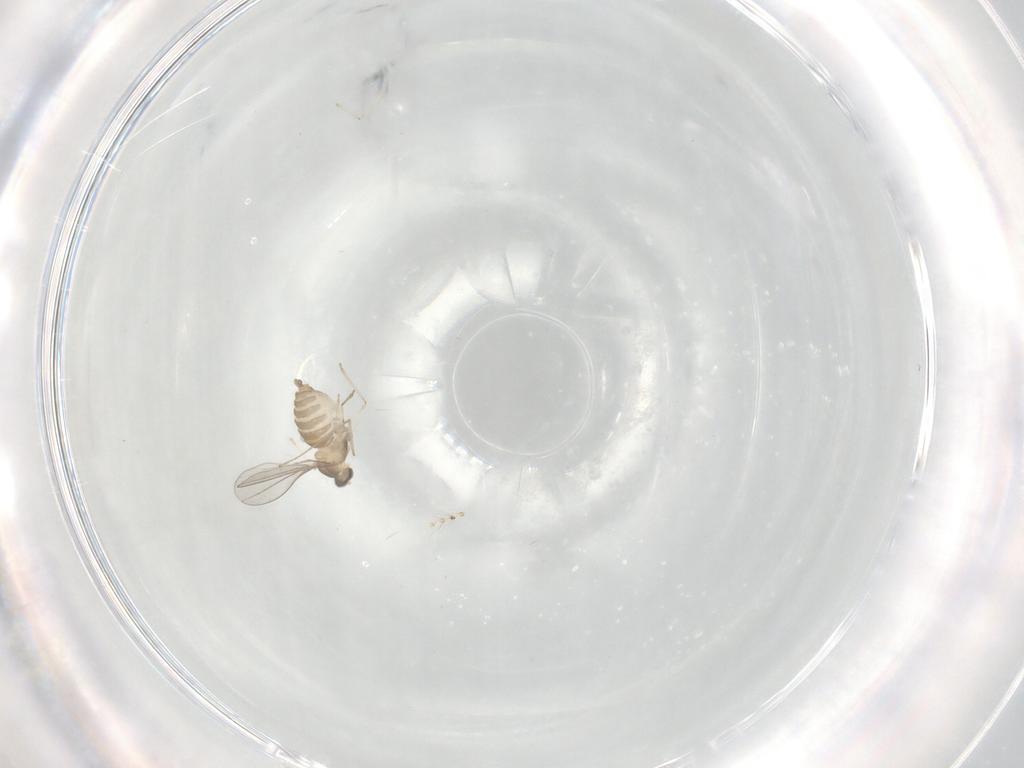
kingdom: Animalia
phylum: Arthropoda
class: Insecta
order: Diptera
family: Cecidomyiidae
